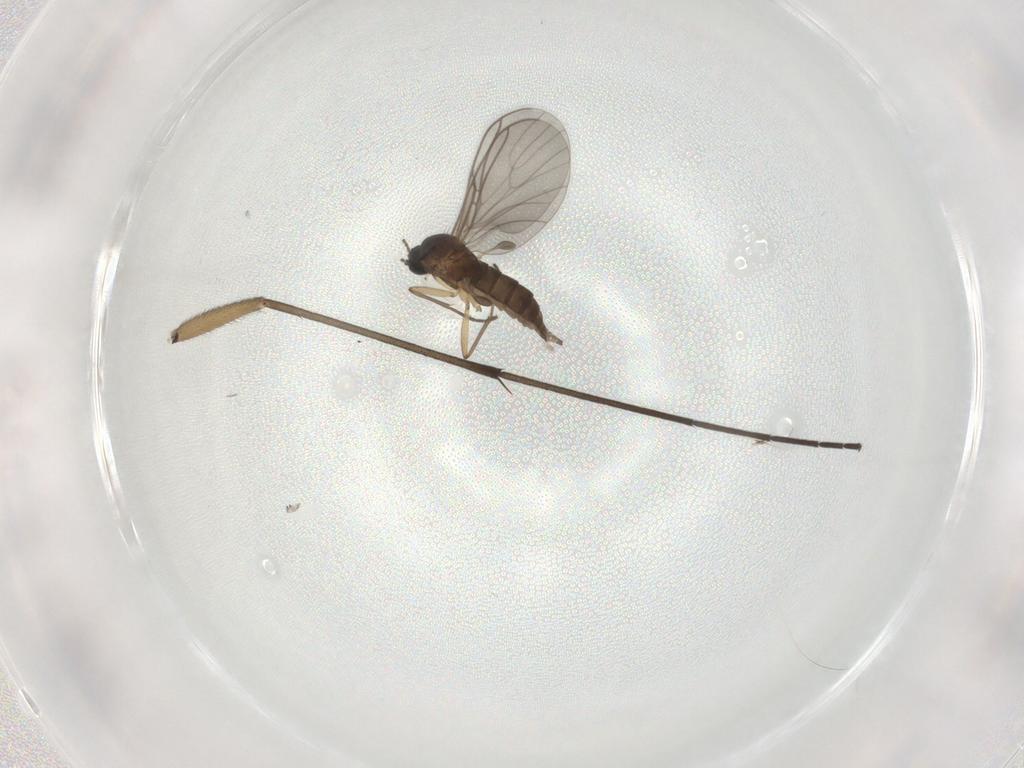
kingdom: Animalia
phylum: Arthropoda
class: Insecta
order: Diptera
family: Sciaridae
